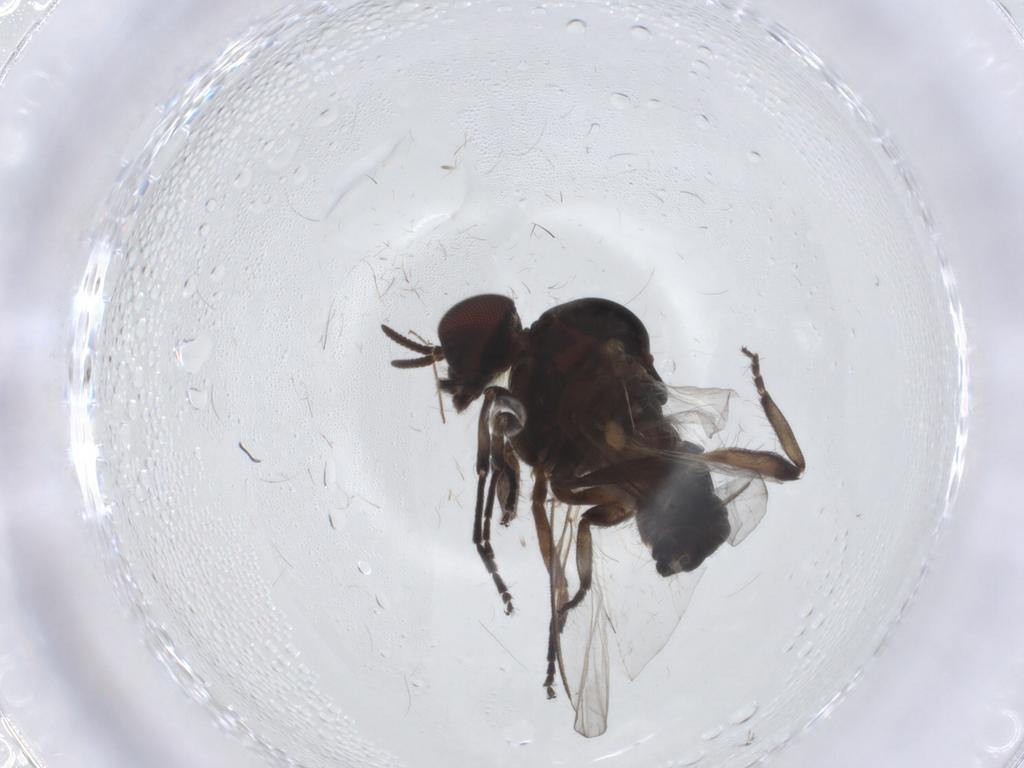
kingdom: Animalia
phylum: Arthropoda
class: Insecta
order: Diptera
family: Simuliidae
